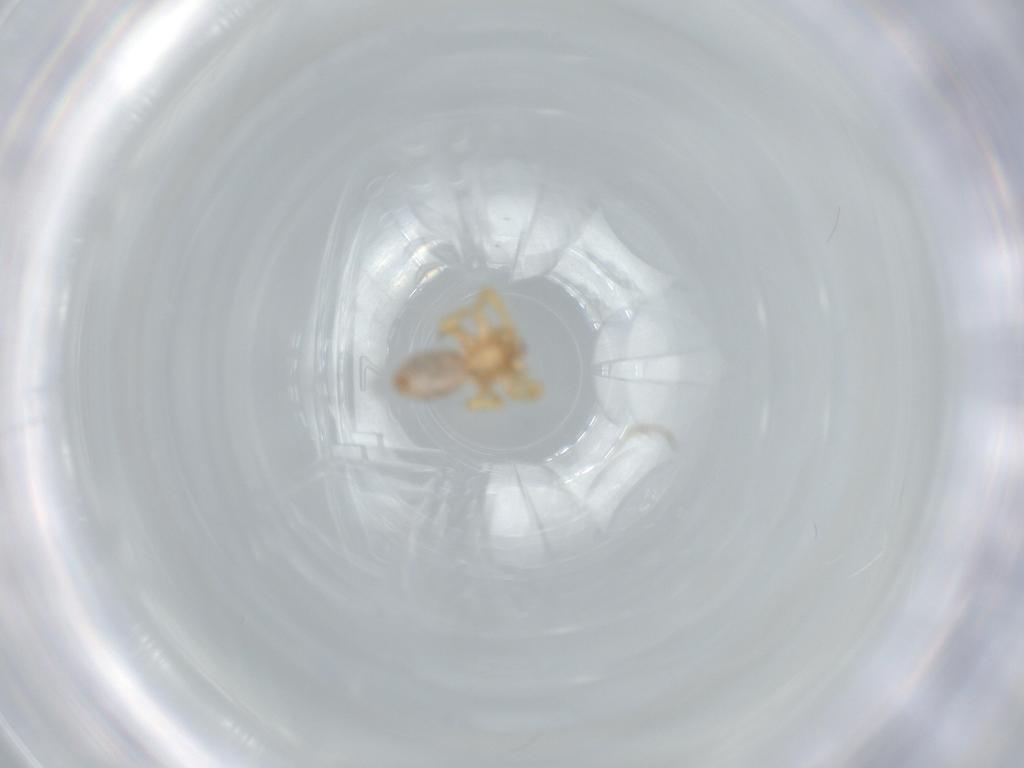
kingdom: Animalia
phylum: Arthropoda
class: Arachnida
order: Araneae
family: Oonopidae
